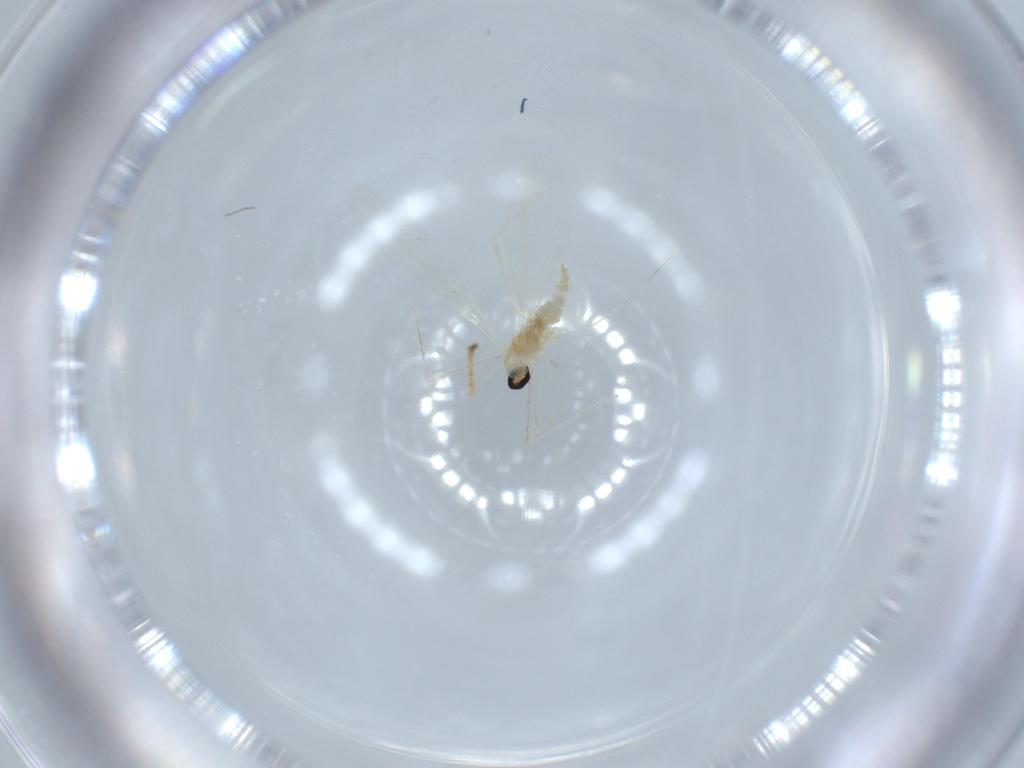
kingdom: Animalia
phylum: Arthropoda
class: Insecta
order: Diptera
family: Cecidomyiidae
